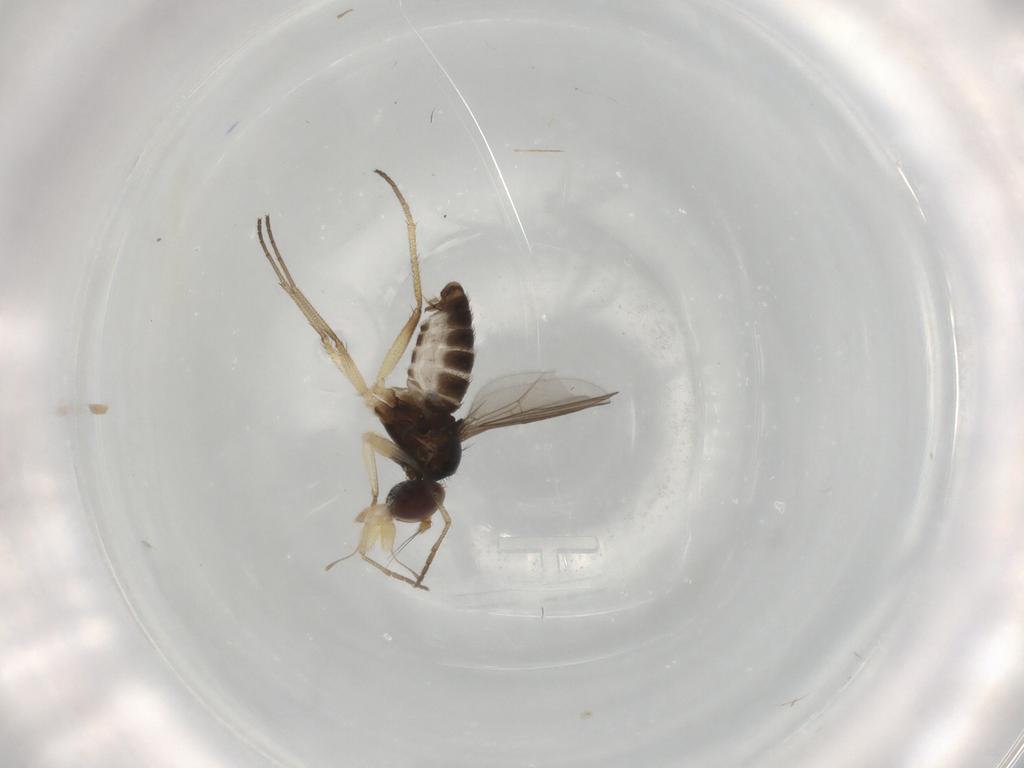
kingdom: Animalia
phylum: Arthropoda
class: Insecta
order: Diptera
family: Dolichopodidae
